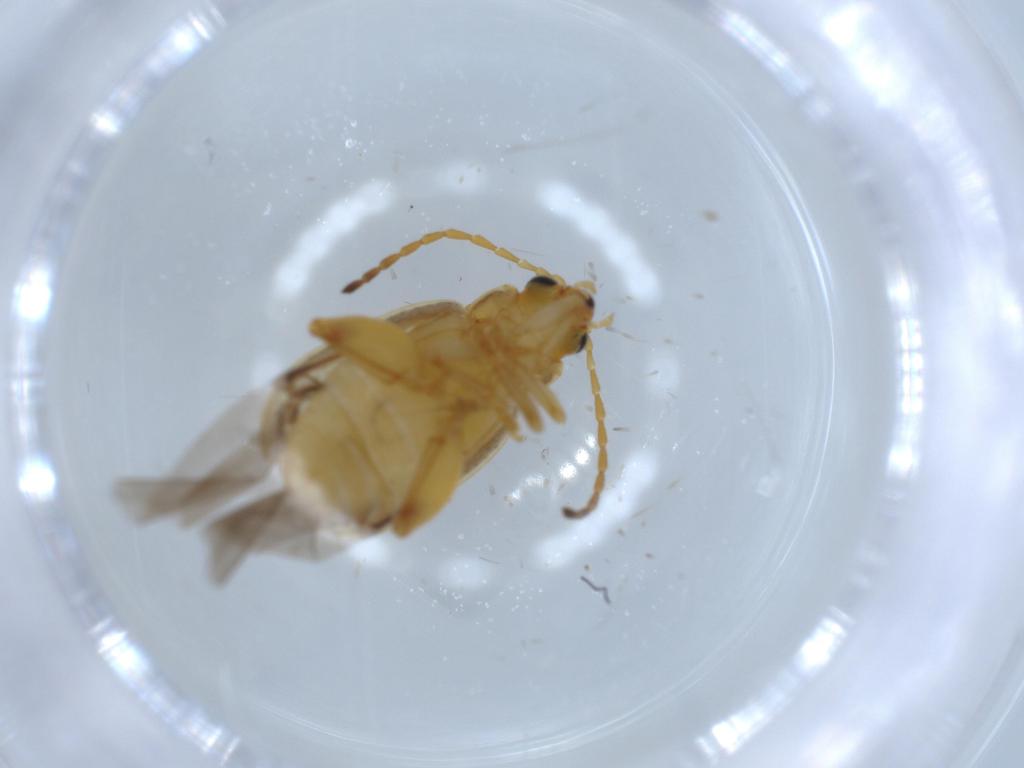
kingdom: Animalia
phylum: Arthropoda
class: Insecta
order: Coleoptera
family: Chrysomelidae
